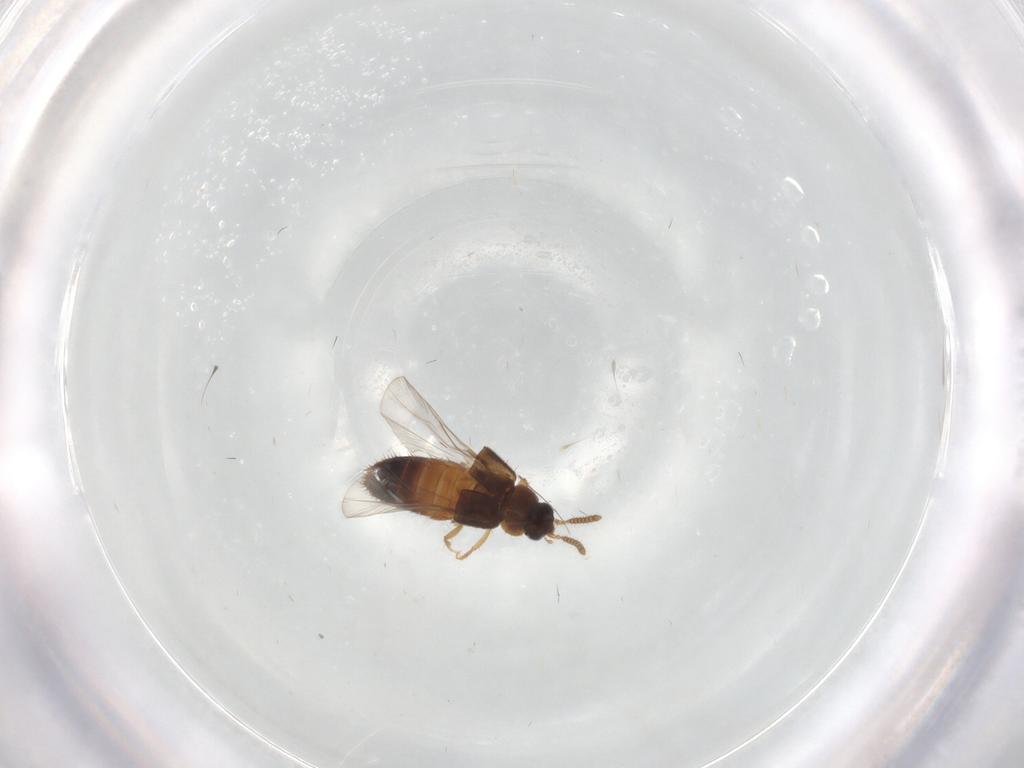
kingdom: Animalia
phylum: Arthropoda
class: Insecta
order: Coleoptera
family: Staphylinidae
